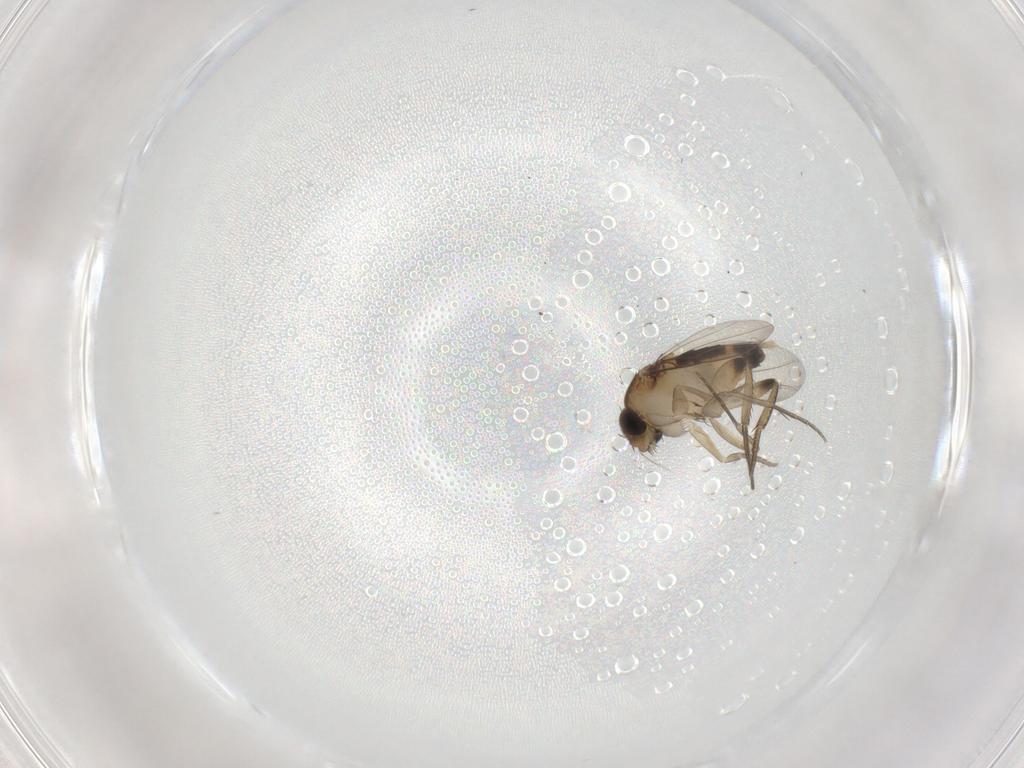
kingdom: Animalia
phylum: Arthropoda
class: Insecta
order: Diptera
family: Phoridae
